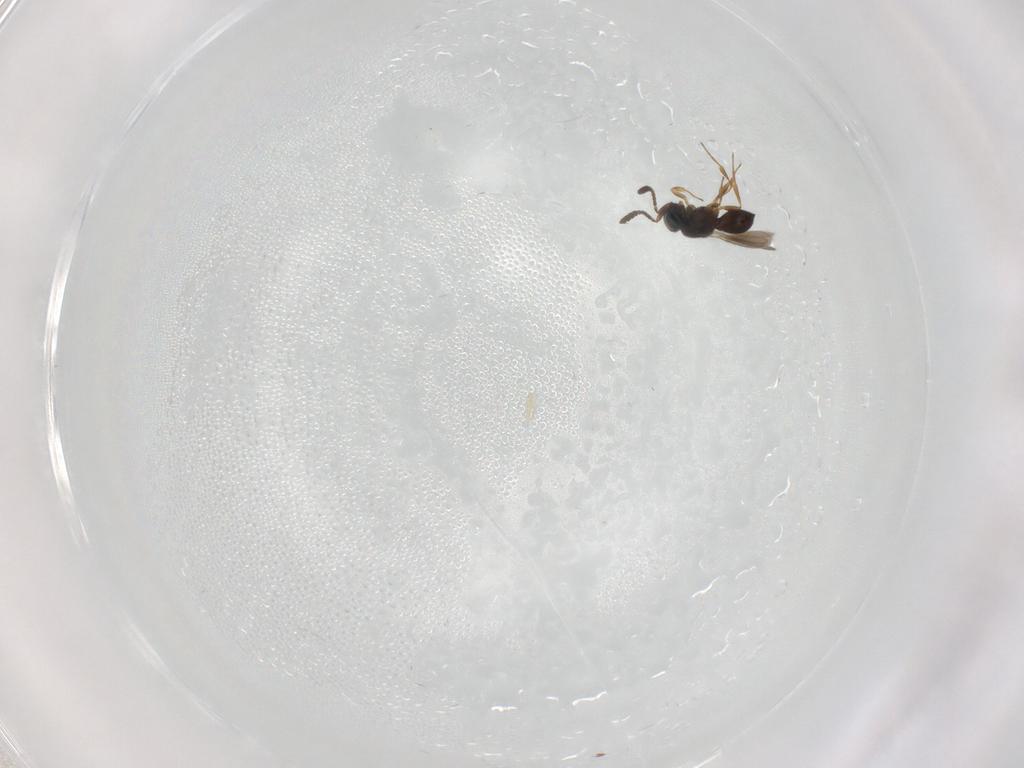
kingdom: Animalia
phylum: Arthropoda
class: Insecta
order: Hymenoptera
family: Scelionidae
